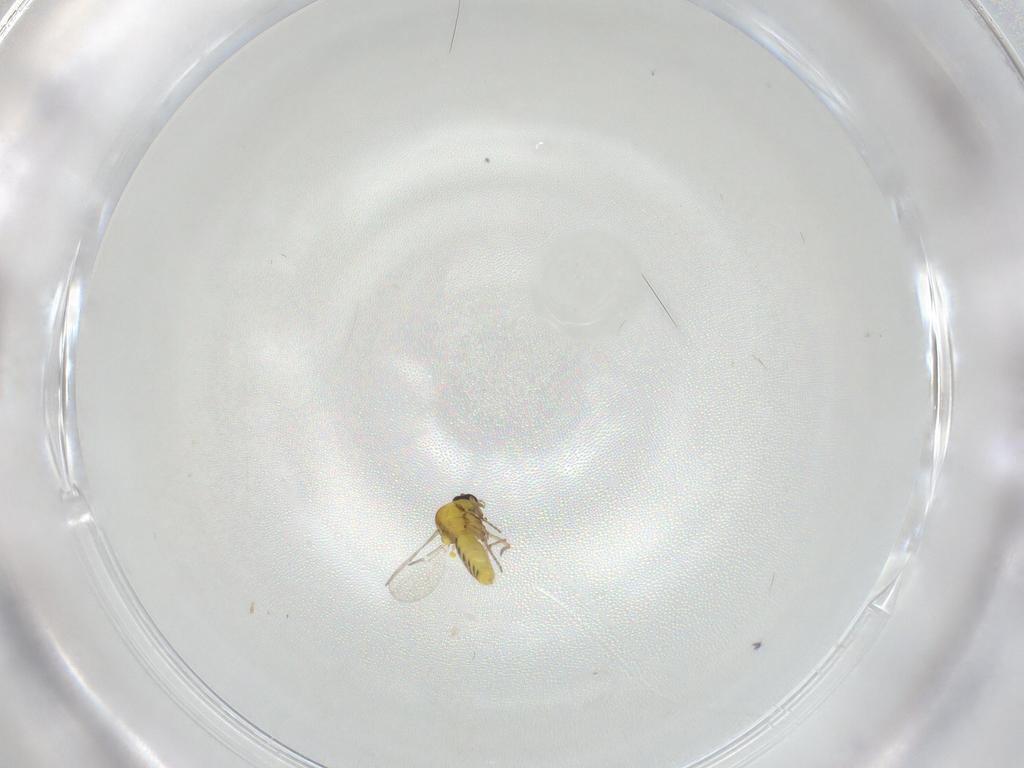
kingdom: Animalia
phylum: Arthropoda
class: Insecta
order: Diptera
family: Ceratopogonidae
